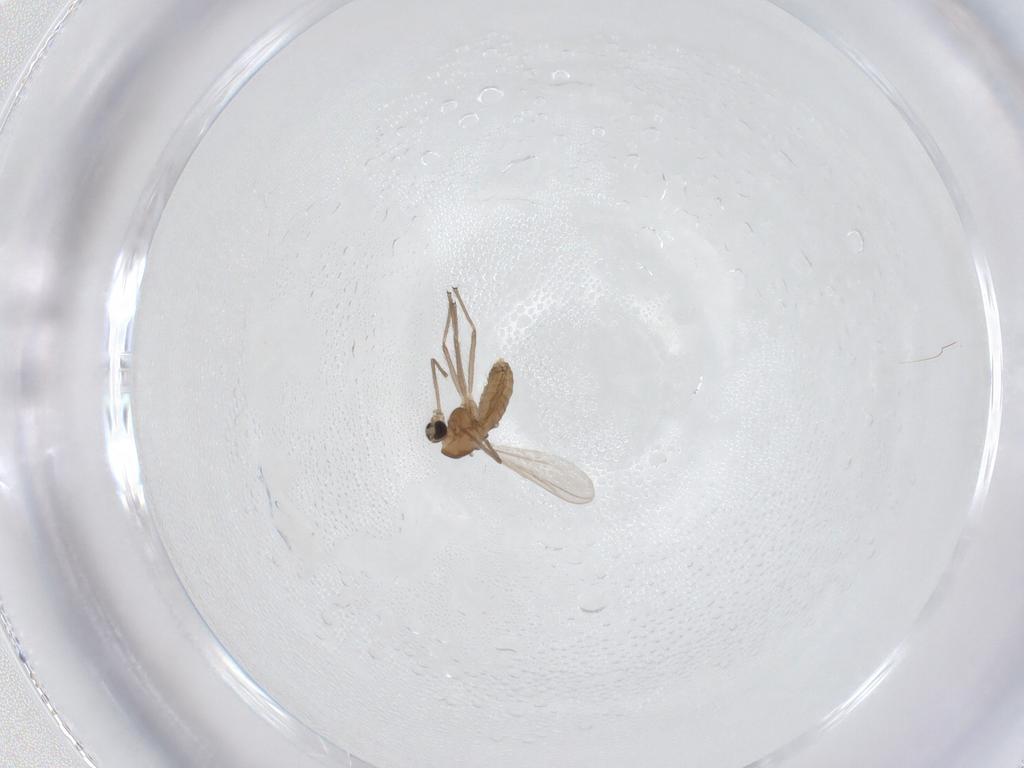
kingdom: Animalia
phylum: Arthropoda
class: Insecta
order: Diptera
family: Chironomidae
